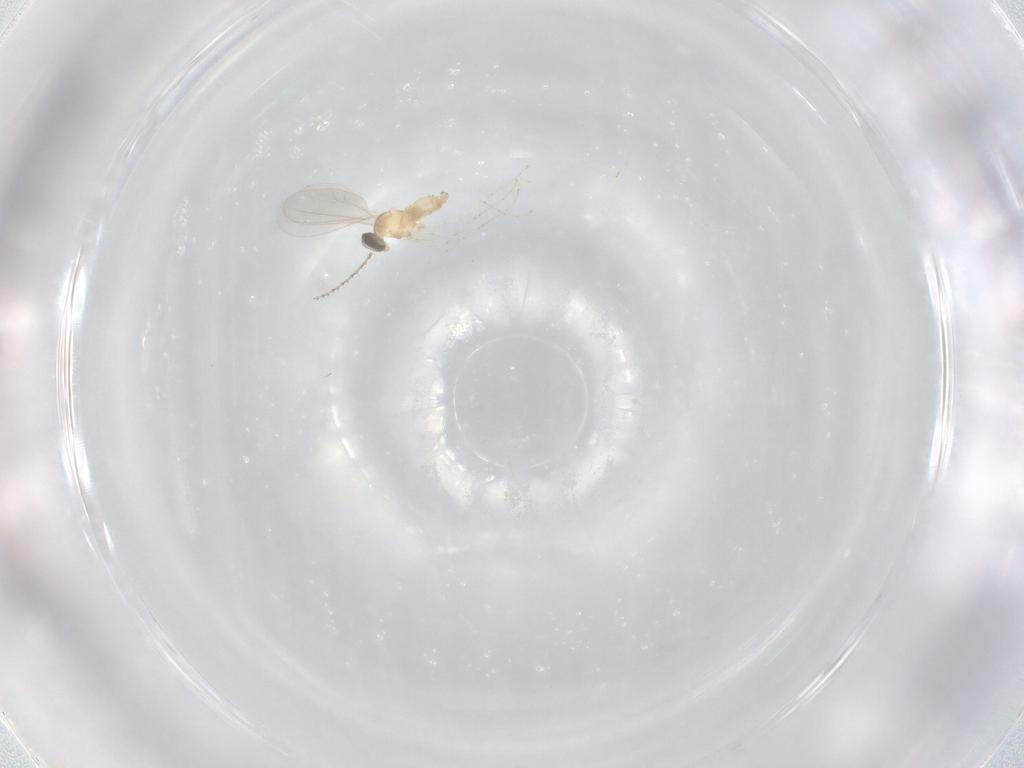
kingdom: Animalia
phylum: Arthropoda
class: Insecta
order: Diptera
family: Cecidomyiidae
